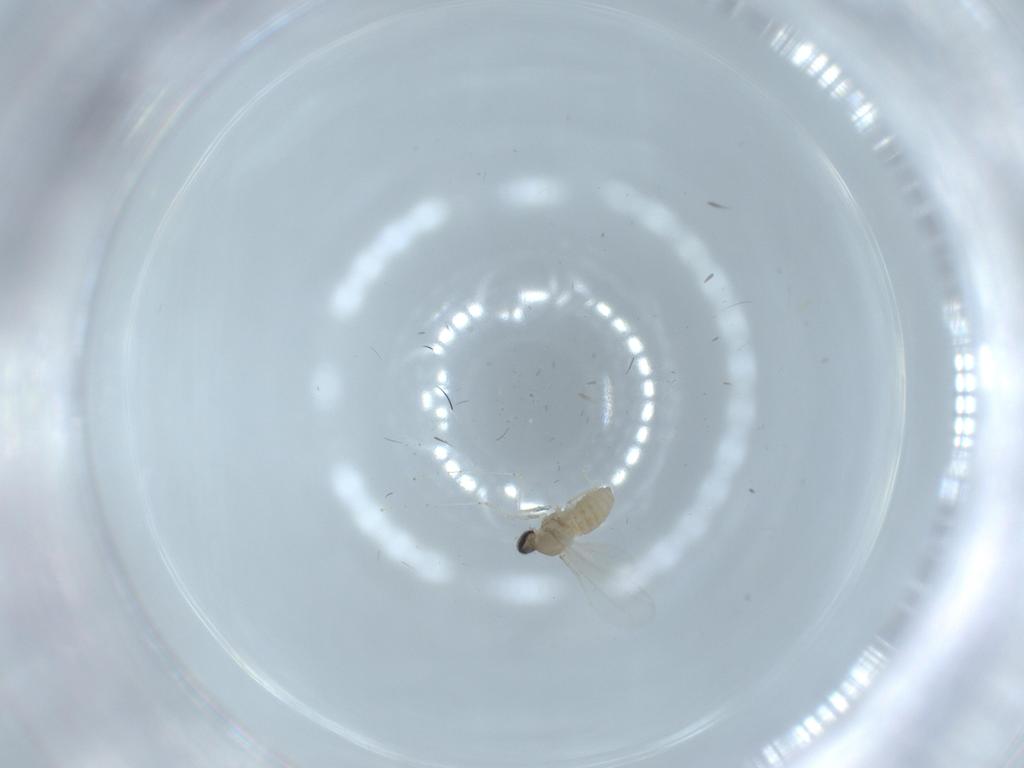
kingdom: Animalia
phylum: Arthropoda
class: Insecta
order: Diptera
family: Cecidomyiidae
